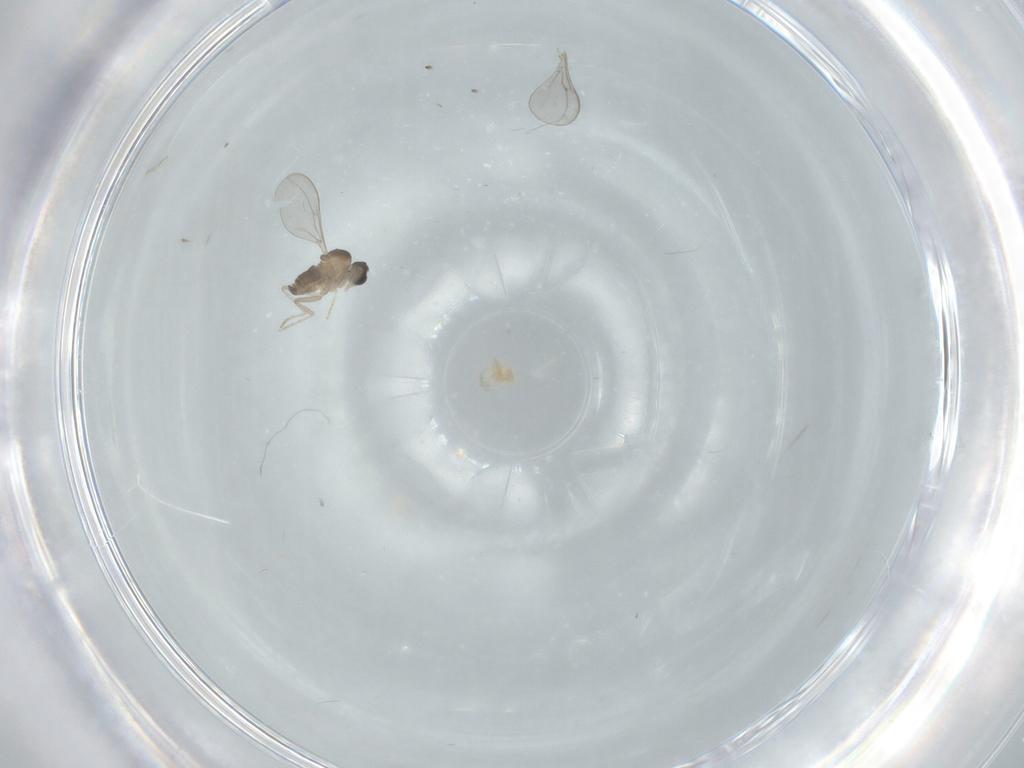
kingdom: Animalia
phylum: Arthropoda
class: Insecta
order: Diptera
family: Cecidomyiidae
